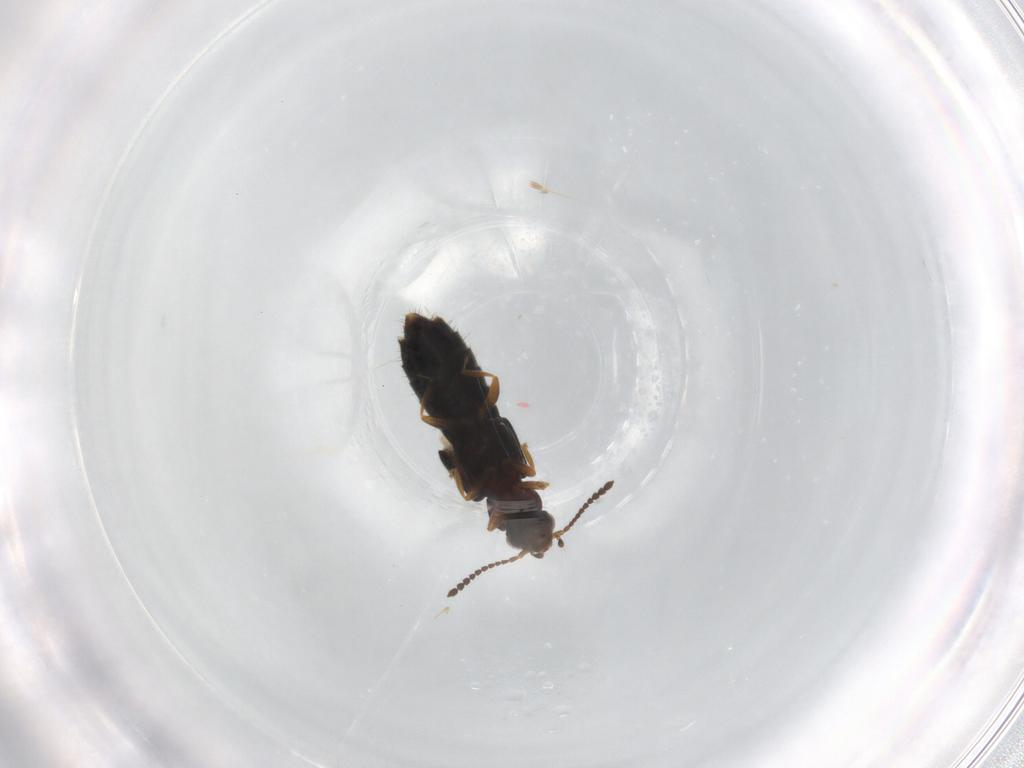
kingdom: Animalia
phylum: Arthropoda
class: Insecta
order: Coleoptera
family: Staphylinidae
